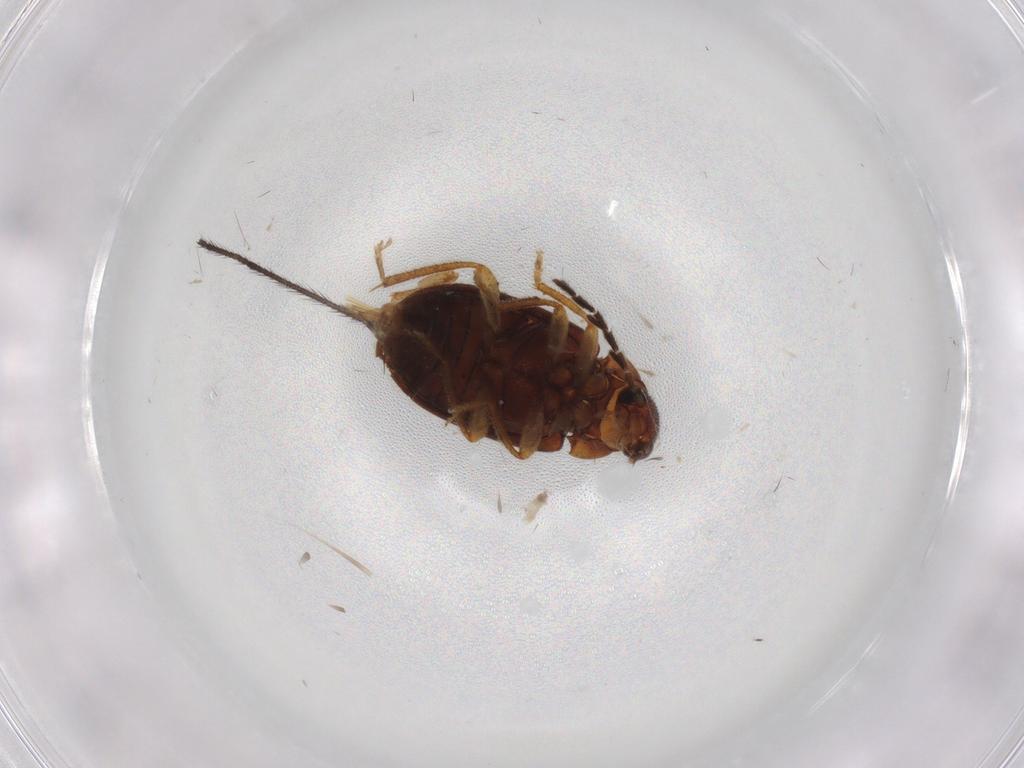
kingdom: Animalia
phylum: Arthropoda
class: Insecta
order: Coleoptera
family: Ptilodactylidae
